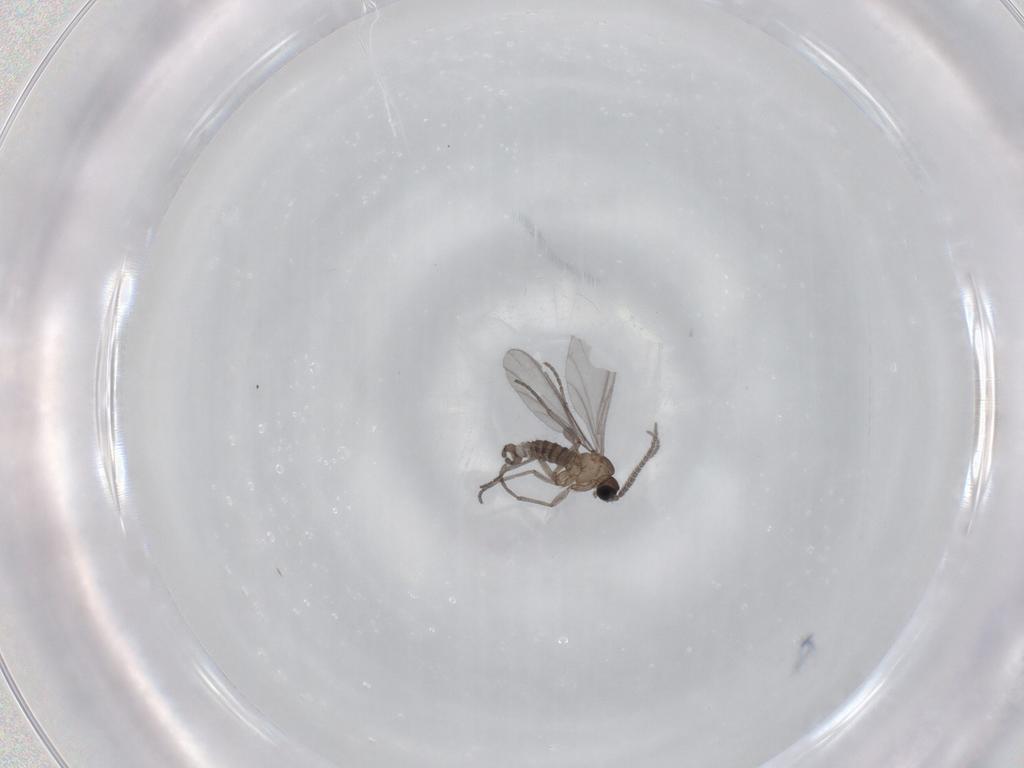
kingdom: Animalia
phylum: Arthropoda
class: Insecta
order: Diptera
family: Sciaridae
